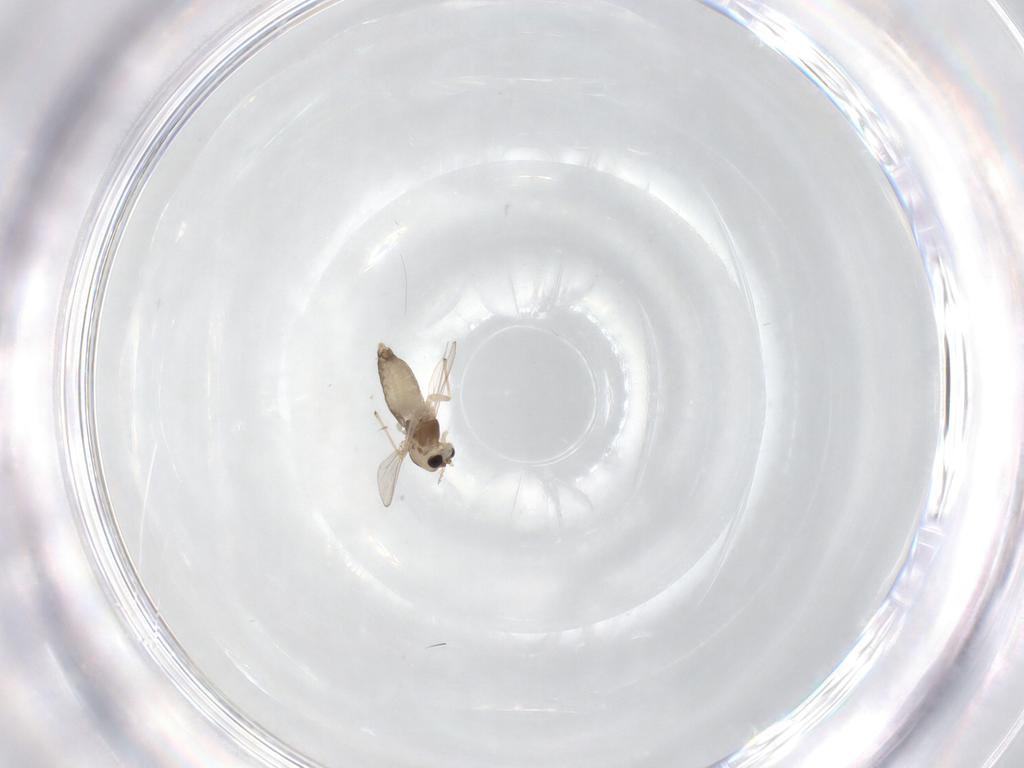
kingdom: Animalia
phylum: Arthropoda
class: Insecta
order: Diptera
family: Chironomidae
